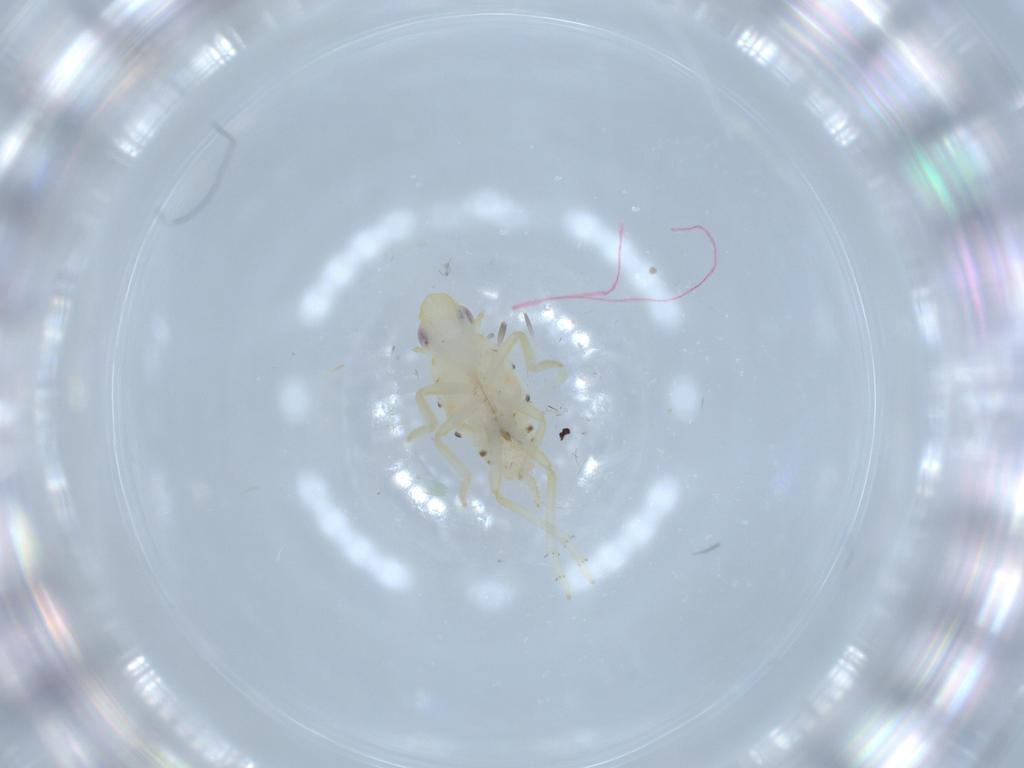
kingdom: Animalia
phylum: Arthropoda
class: Insecta
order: Hemiptera
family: Tropiduchidae
